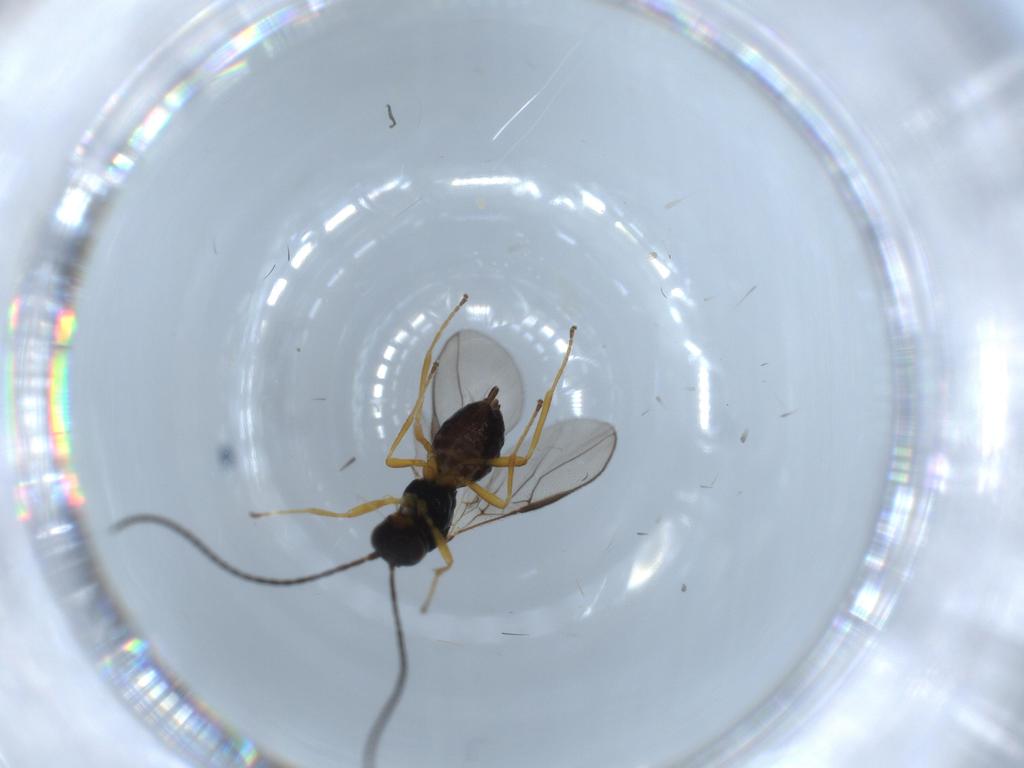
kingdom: Animalia
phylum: Arthropoda
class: Insecta
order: Hymenoptera
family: Braconidae
